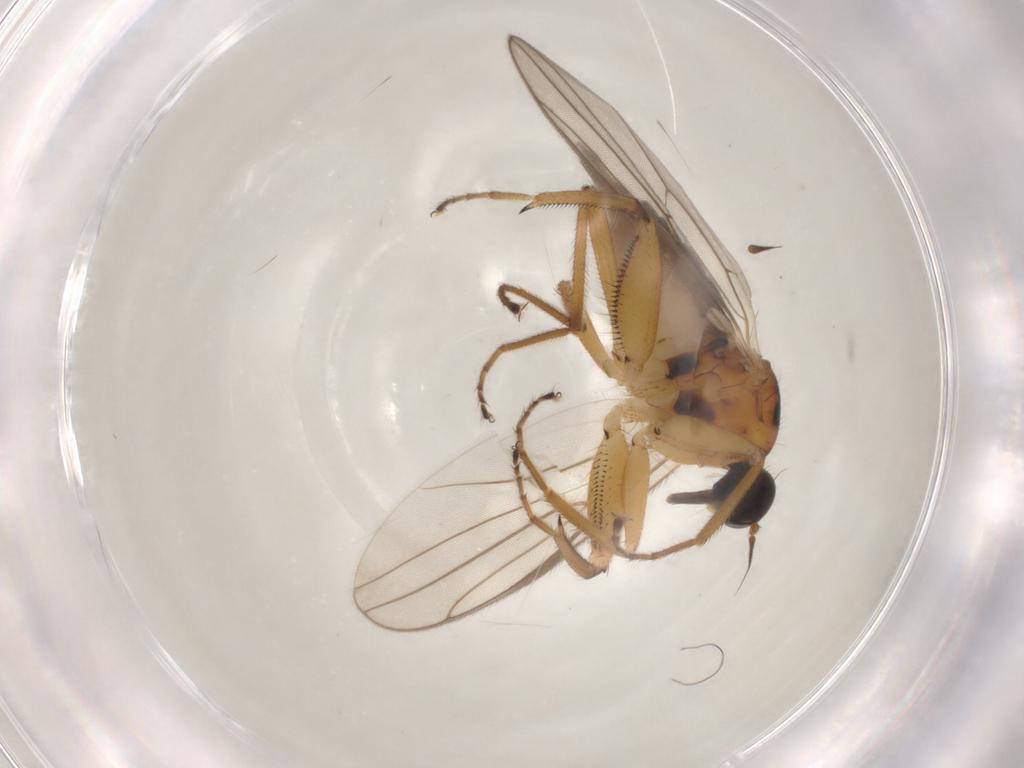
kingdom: Animalia
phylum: Arthropoda
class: Insecta
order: Diptera
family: Hybotidae
